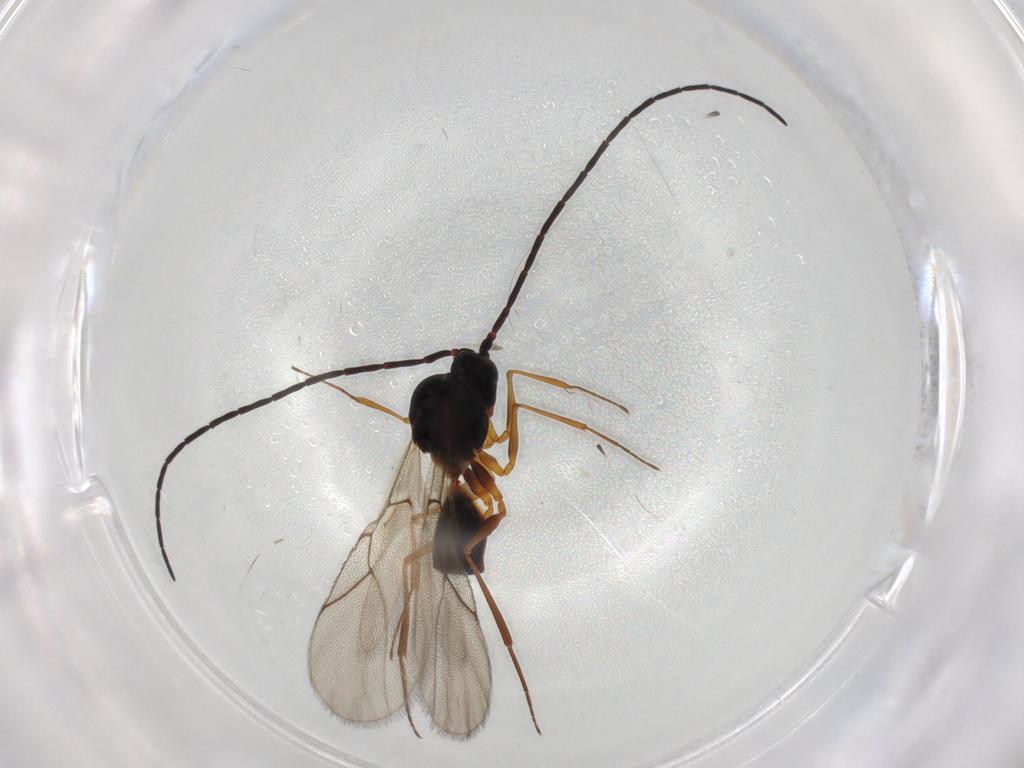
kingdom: Animalia
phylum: Arthropoda
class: Insecta
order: Hymenoptera
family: Figitidae
